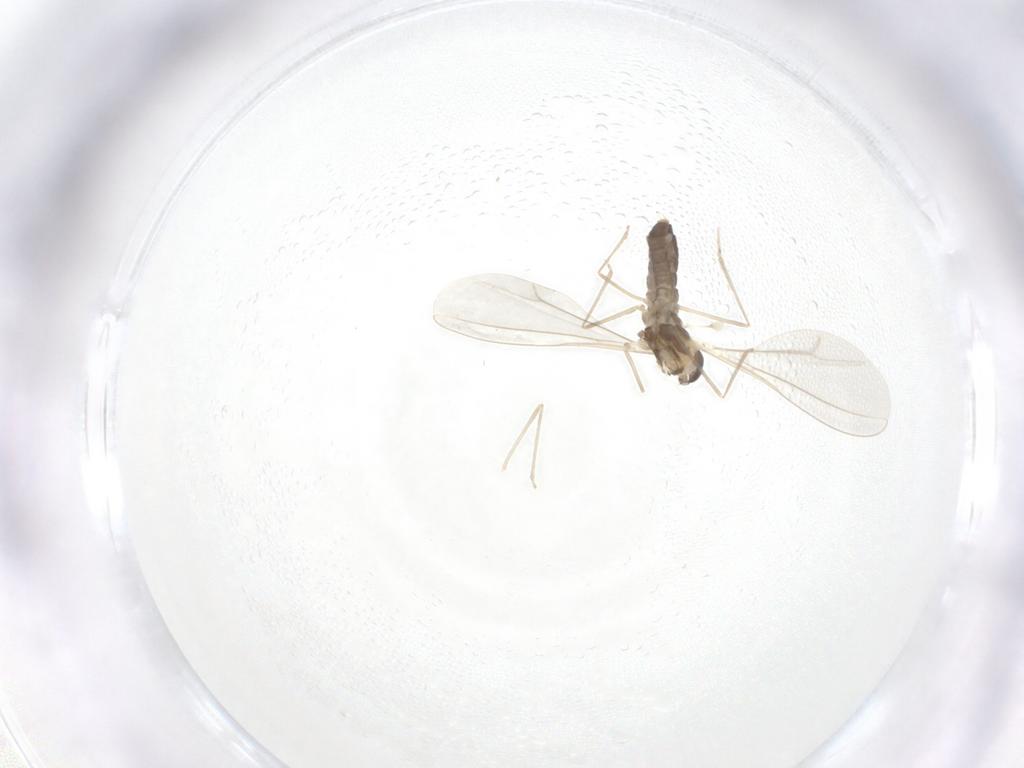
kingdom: Animalia
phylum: Arthropoda
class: Insecta
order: Diptera
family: Cecidomyiidae
